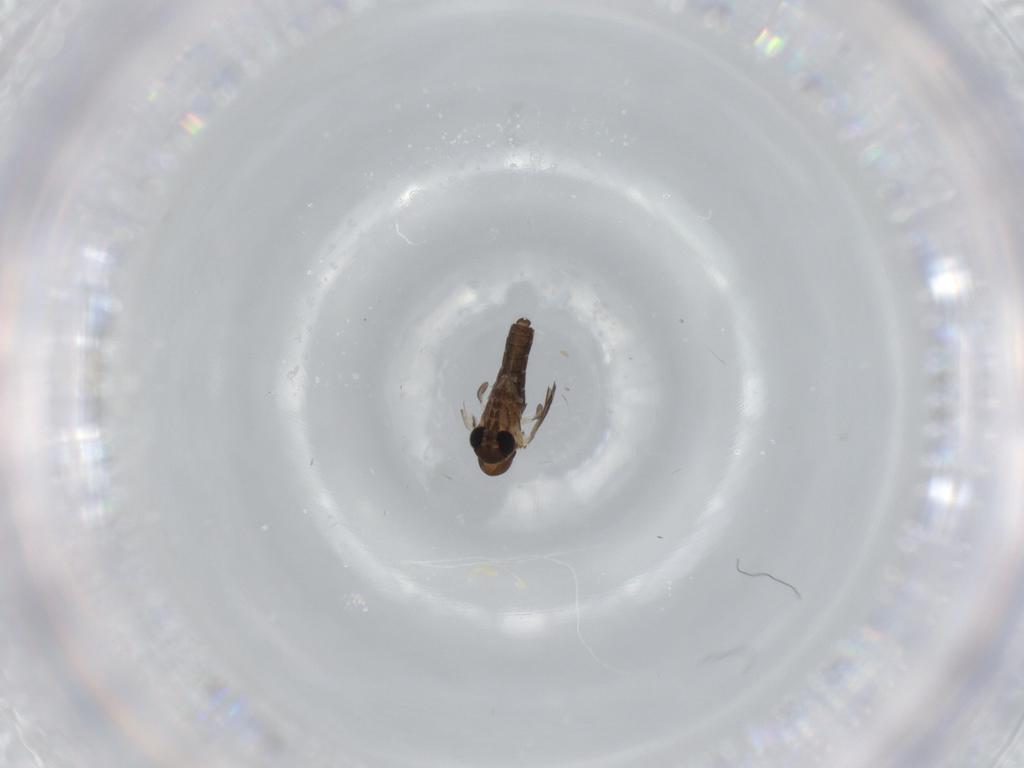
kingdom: Animalia
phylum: Arthropoda
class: Insecta
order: Diptera
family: Psychodidae
